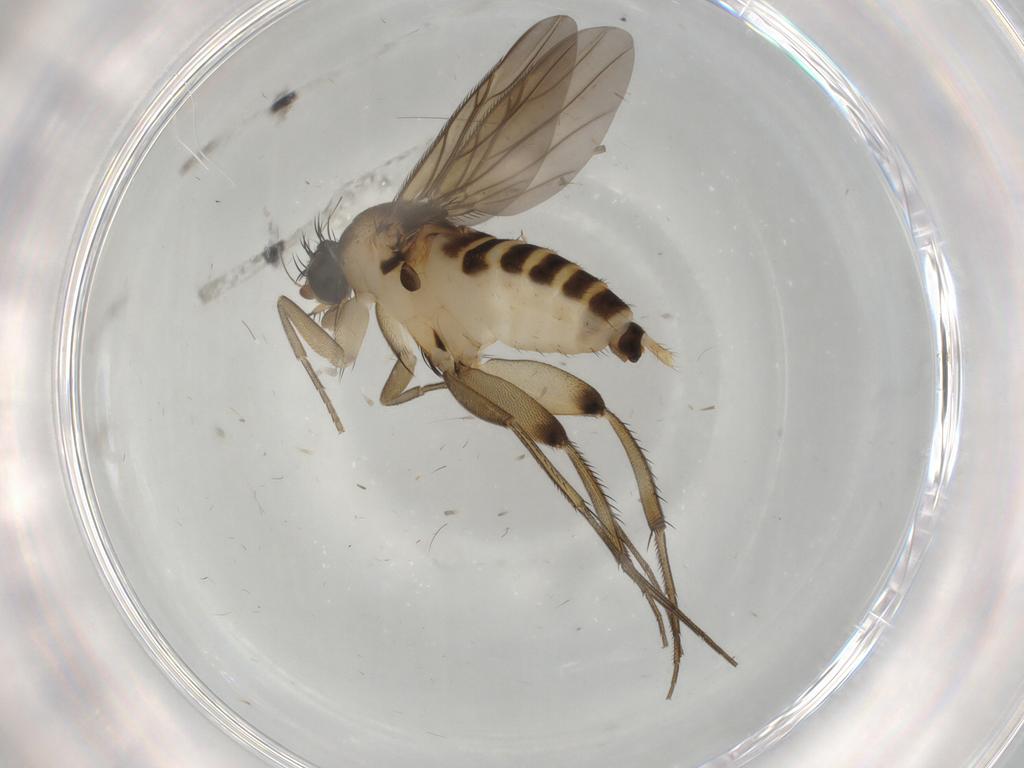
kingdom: Animalia
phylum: Arthropoda
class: Insecta
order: Diptera
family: Phoridae
